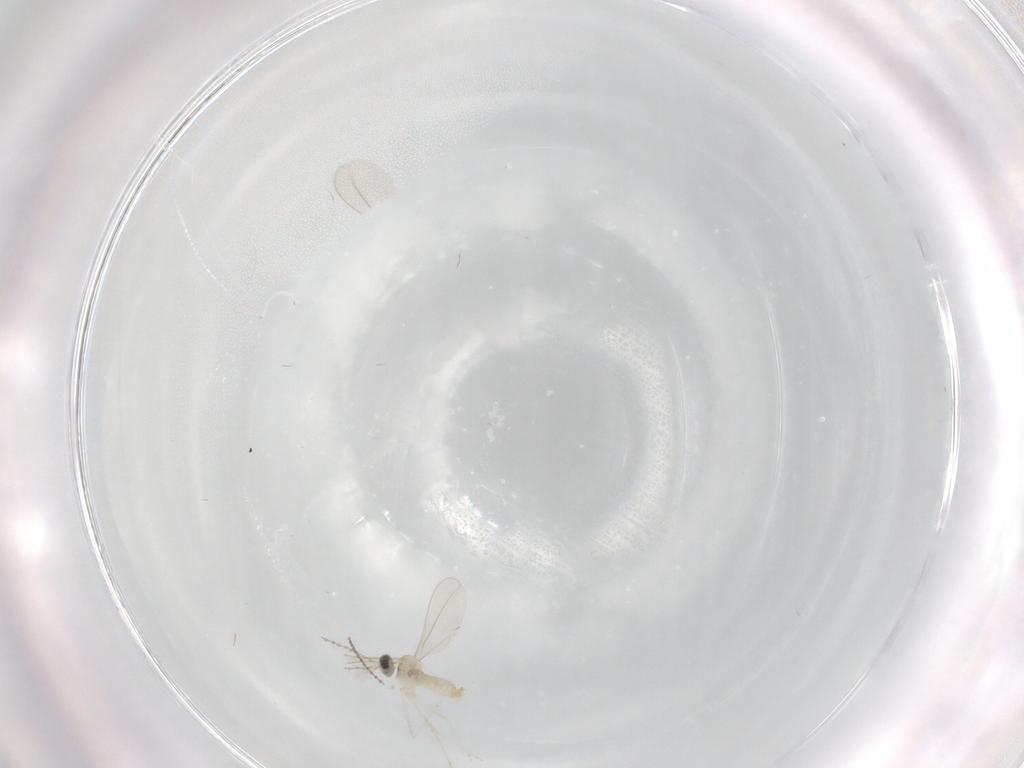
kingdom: Animalia
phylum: Arthropoda
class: Insecta
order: Diptera
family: Limoniidae
